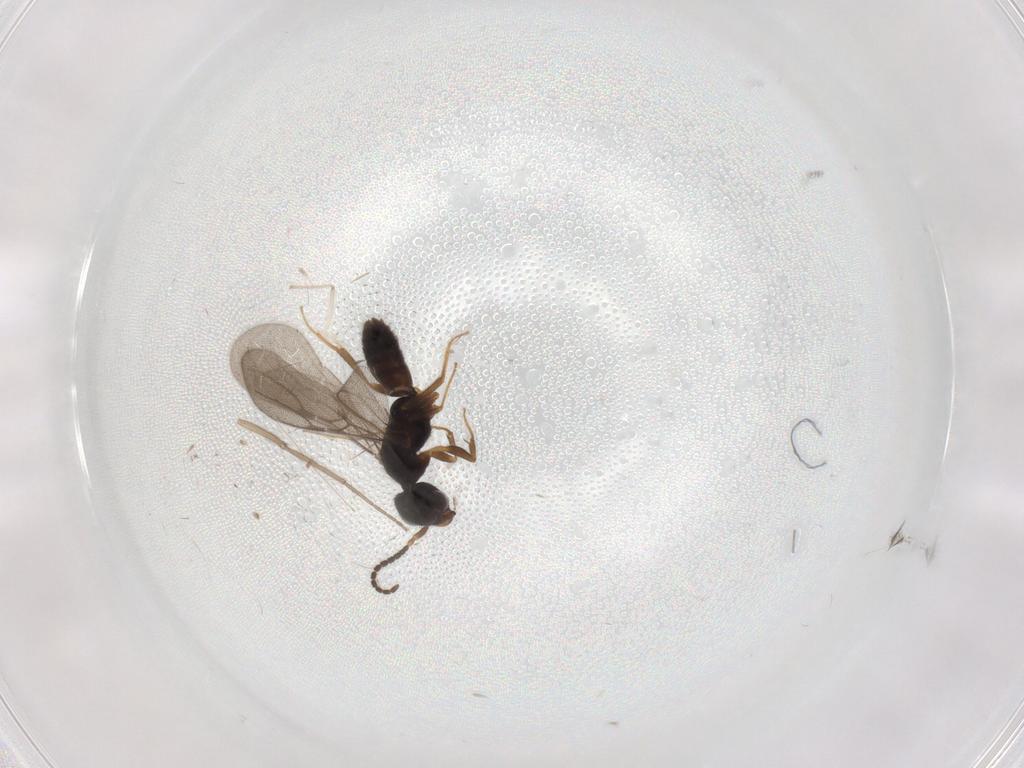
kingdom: Animalia
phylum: Arthropoda
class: Insecta
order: Hymenoptera
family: Bethylidae
